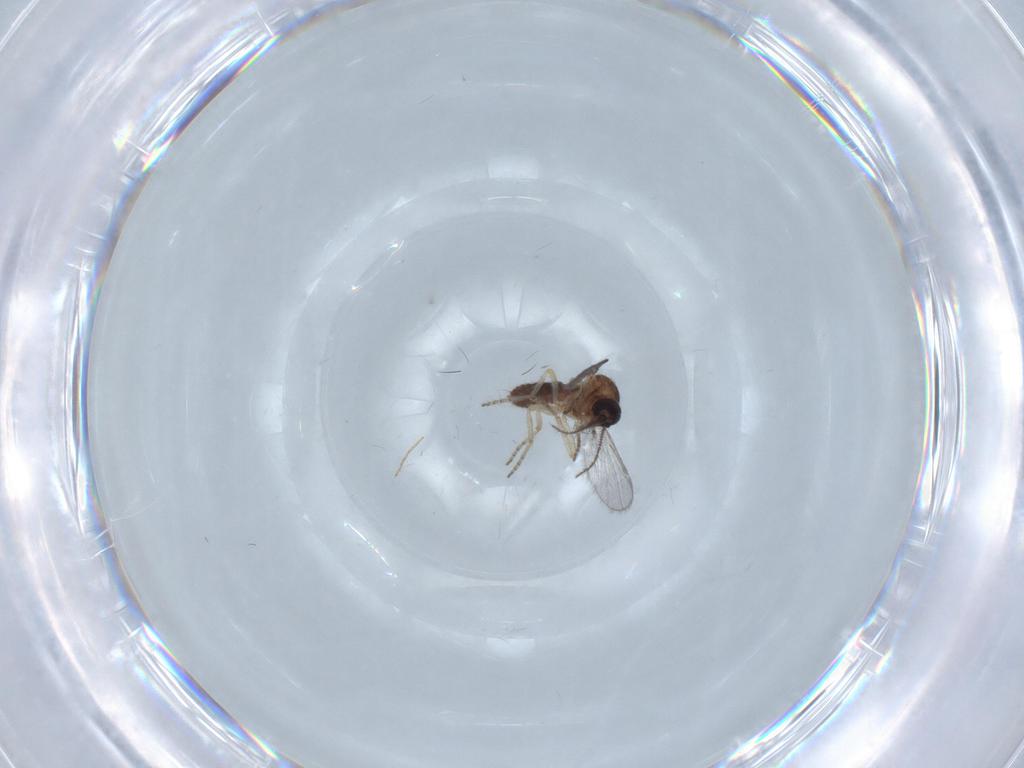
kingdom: Animalia
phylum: Arthropoda
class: Insecta
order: Diptera
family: Ceratopogonidae
